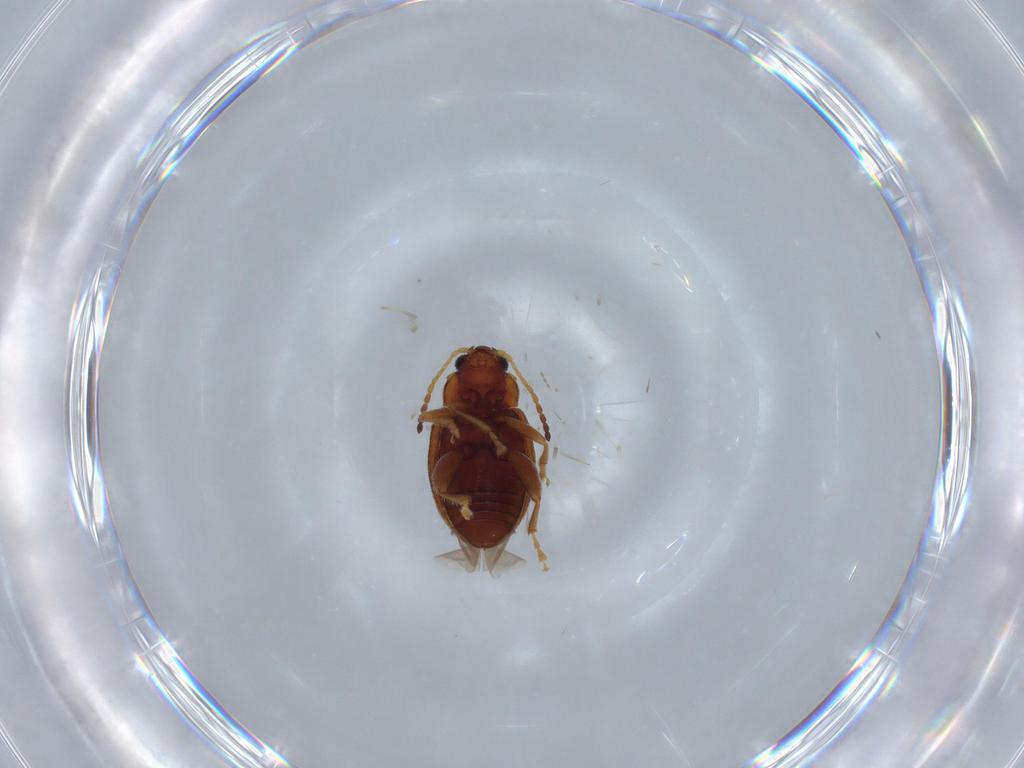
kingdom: Animalia
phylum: Arthropoda
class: Insecta
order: Coleoptera
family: Chrysomelidae
